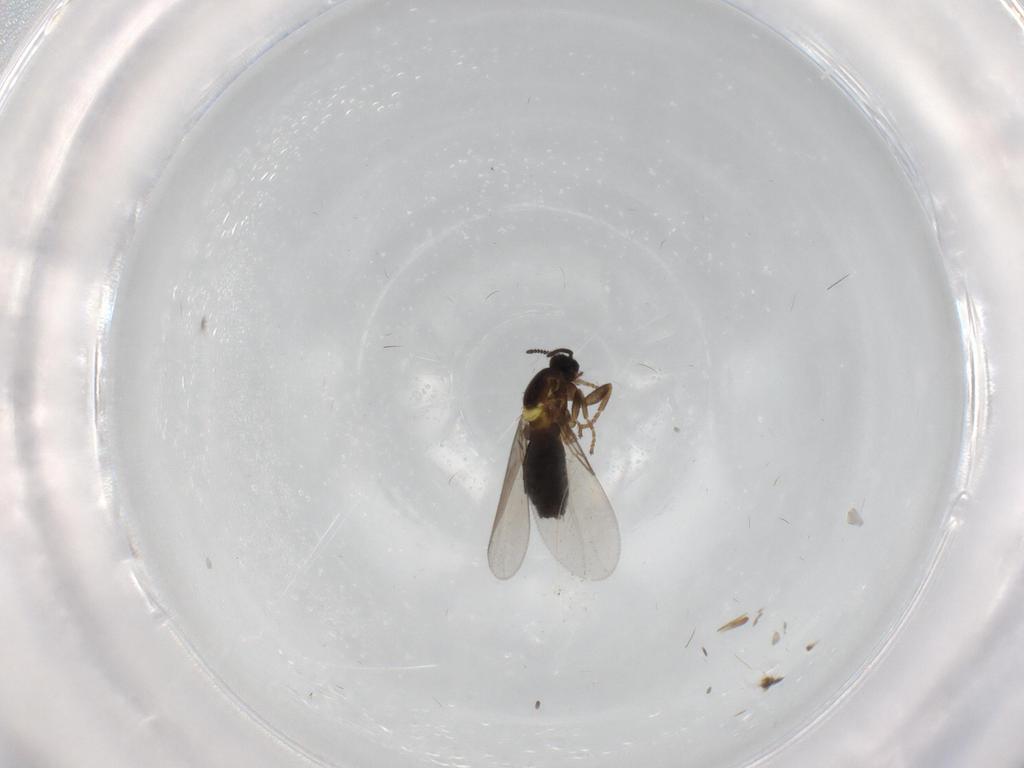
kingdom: Animalia
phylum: Arthropoda
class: Insecta
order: Diptera
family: Scatopsidae
